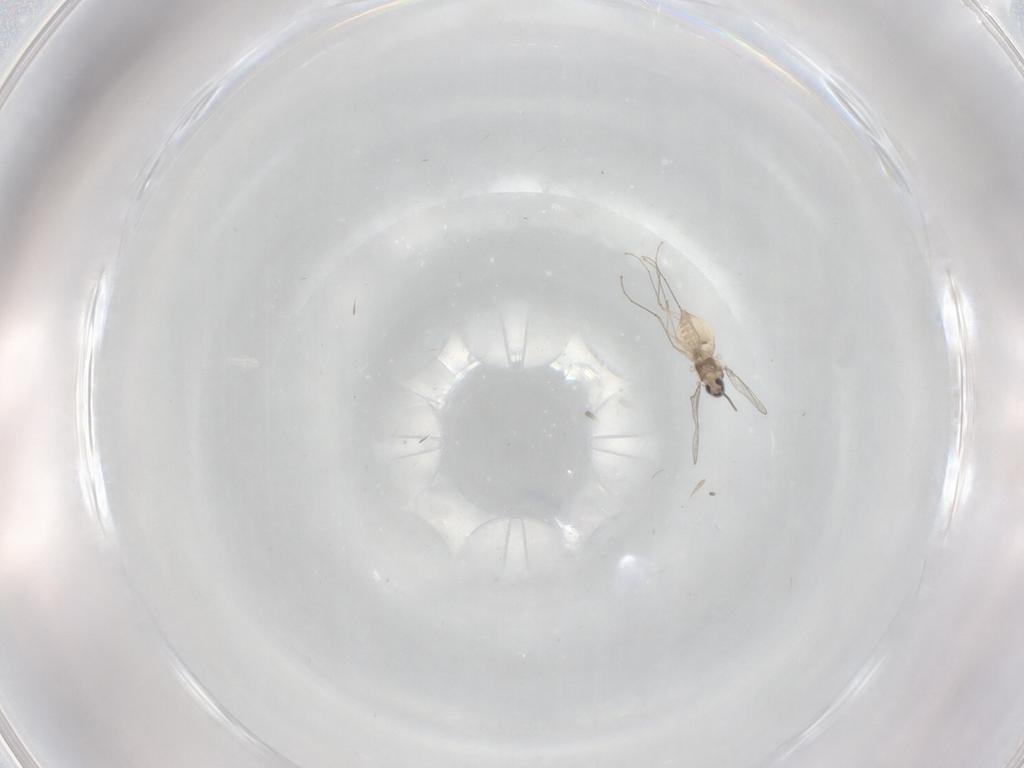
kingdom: Animalia
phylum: Arthropoda
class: Insecta
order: Diptera
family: Cecidomyiidae
